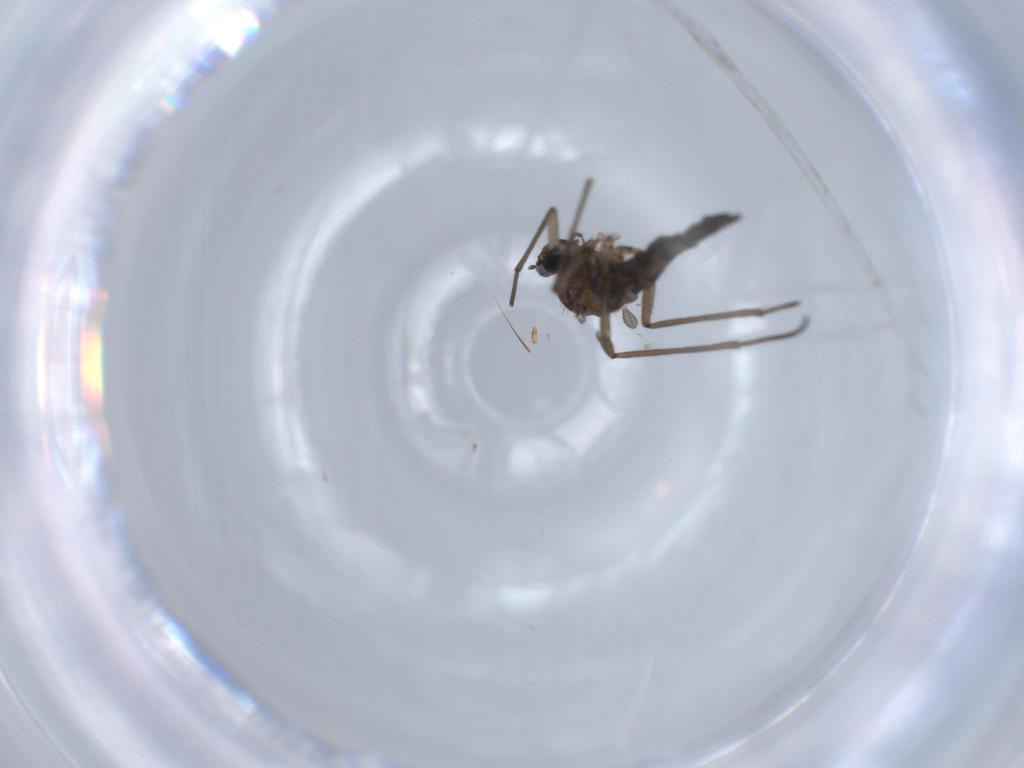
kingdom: Animalia
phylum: Arthropoda
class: Insecta
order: Diptera
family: Sciaridae
